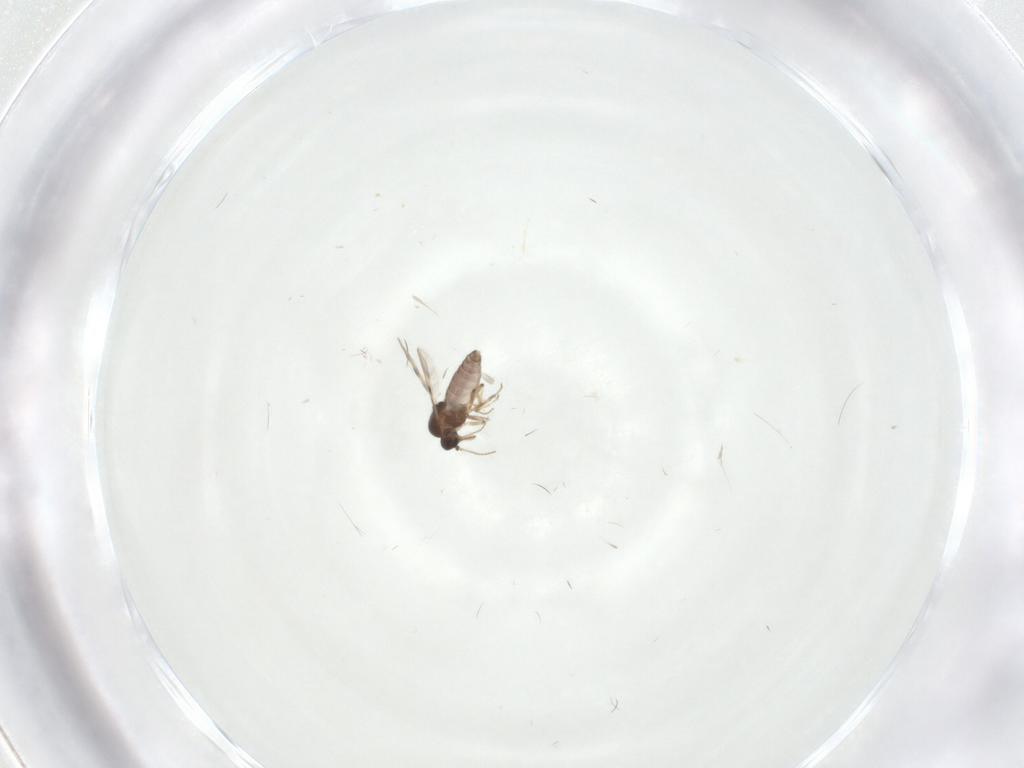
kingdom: Animalia
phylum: Arthropoda
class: Insecta
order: Diptera
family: Limoniidae
